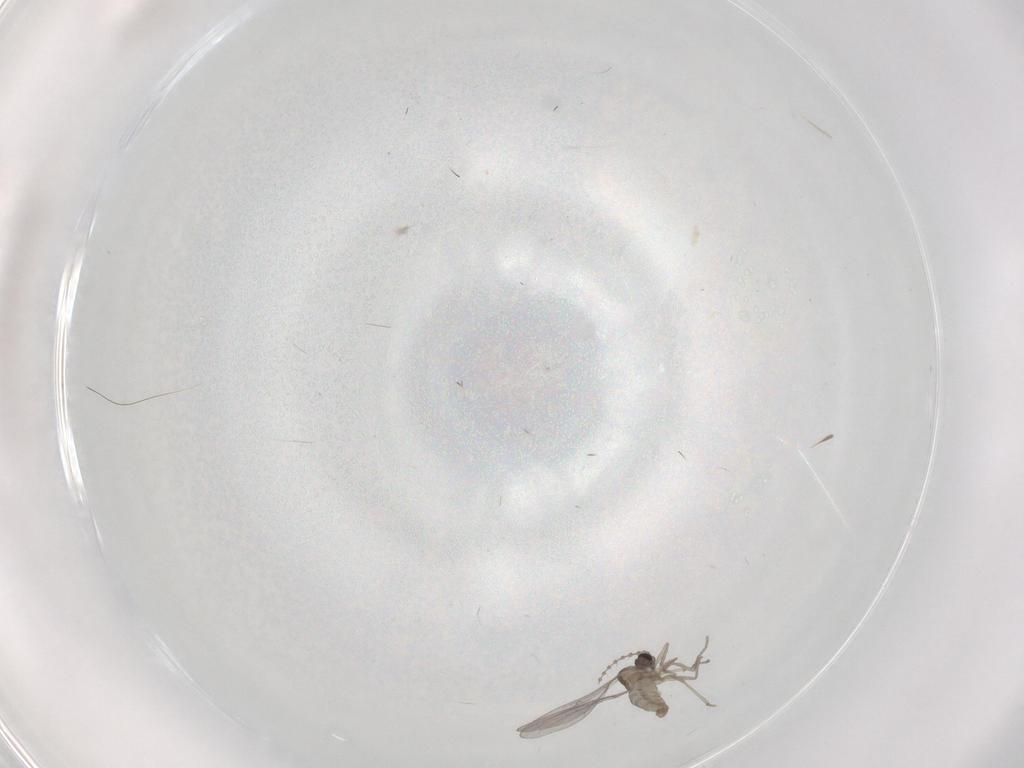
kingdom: Animalia
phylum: Arthropoda
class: Insecta
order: Diptera
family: Cecidomyiidae
